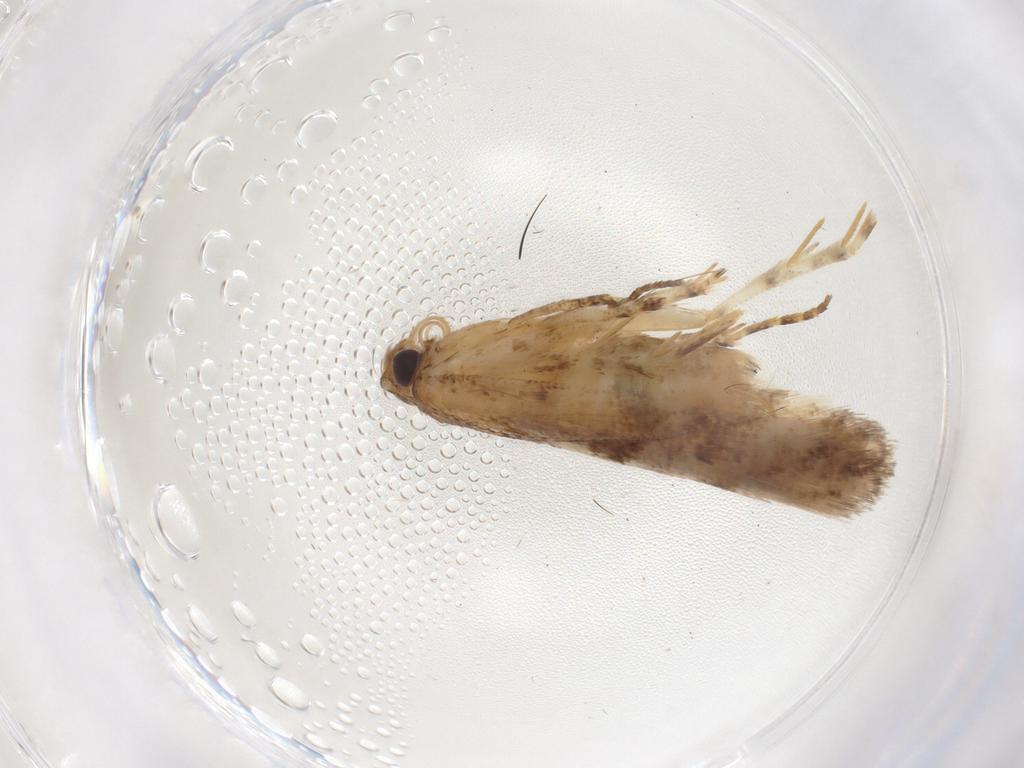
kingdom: Animalia
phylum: Arthropoda
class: Insecta
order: Lepidoptera
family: Gelechiidae
